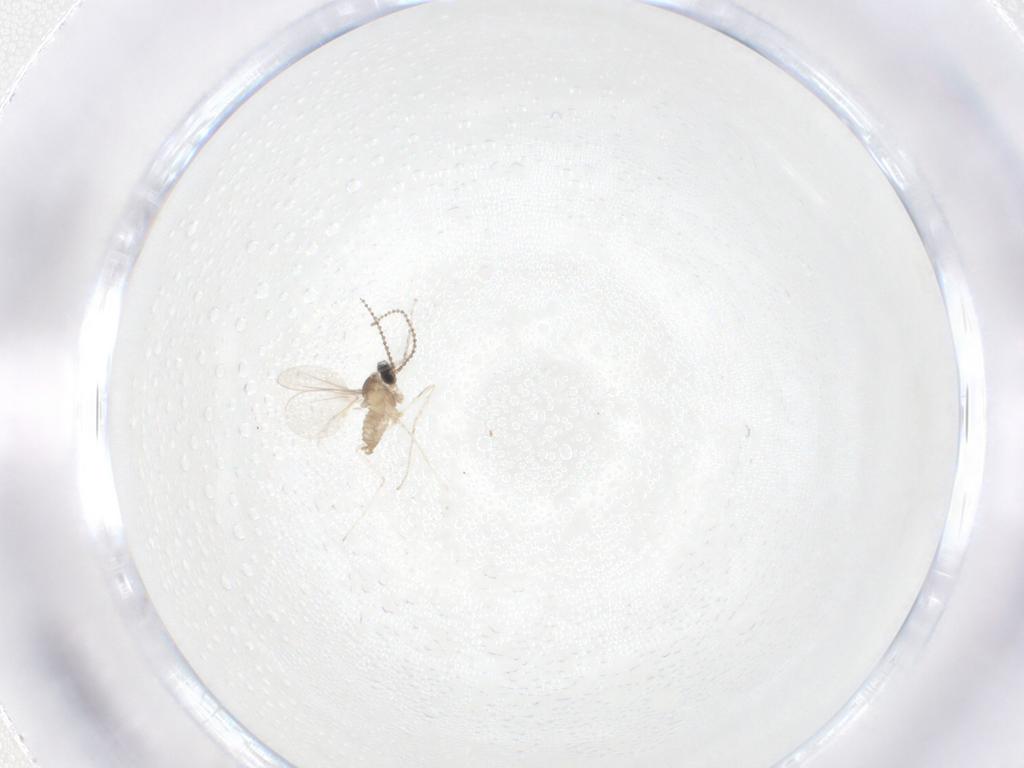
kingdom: Animalia
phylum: Arthropoda
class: Insecta
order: Diptera
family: Cecidomyiidae
